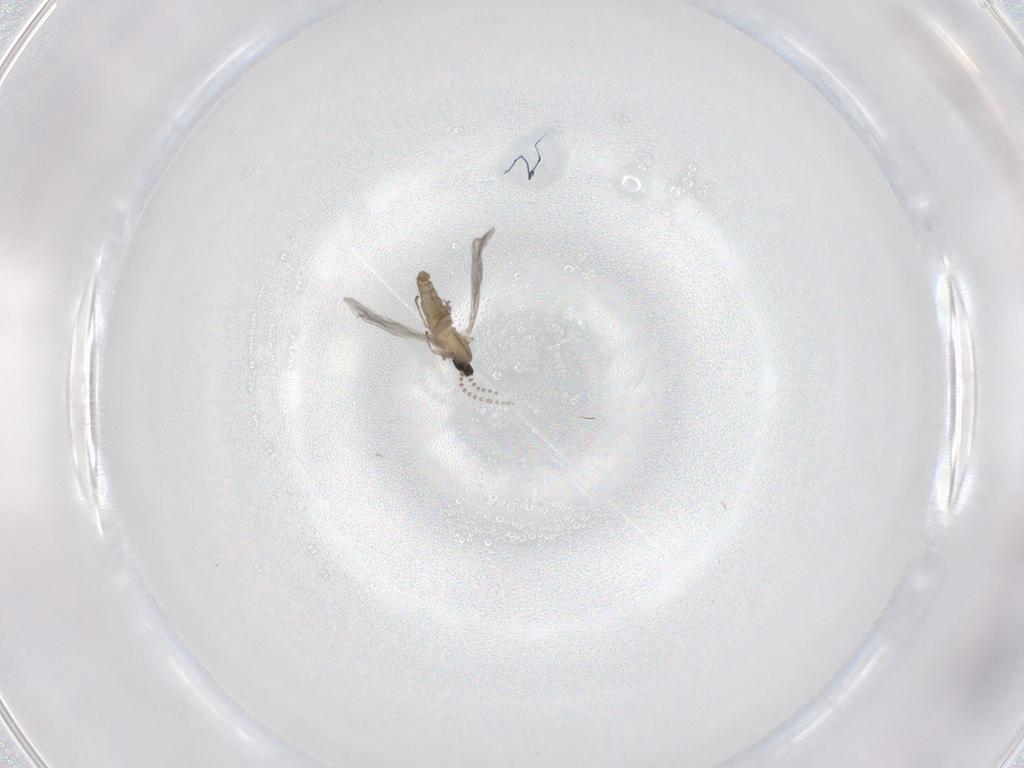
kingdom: Animalia
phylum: Arthropoda
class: Insecta
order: Diptera
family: Cecidomyiidae
